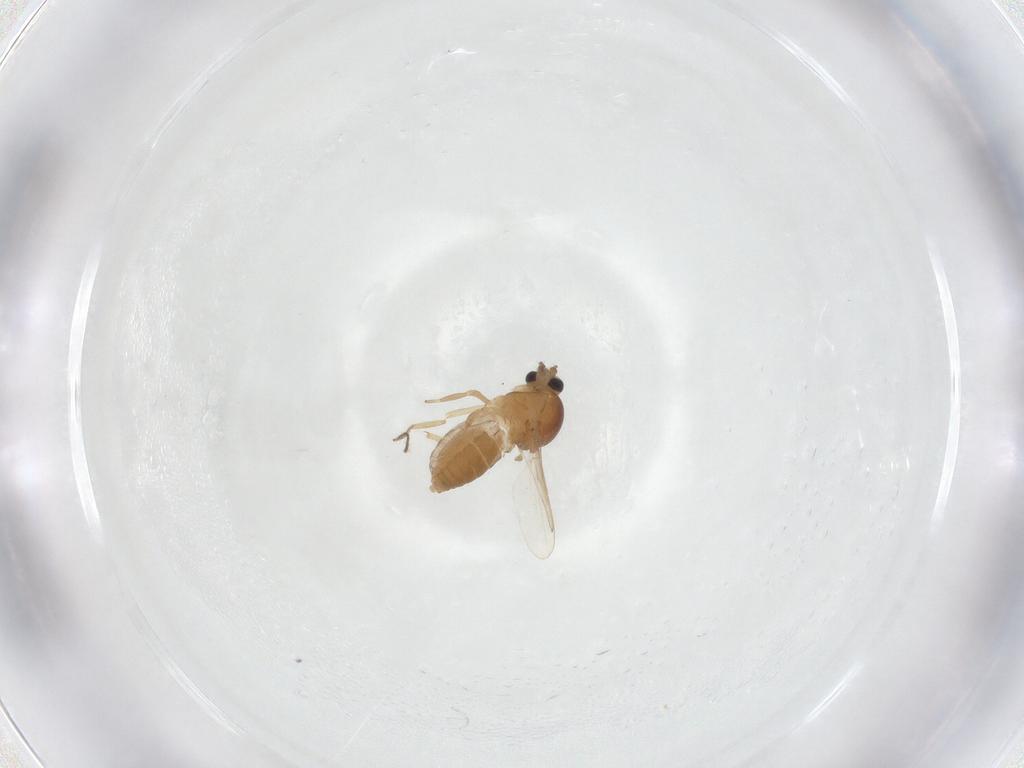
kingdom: Animalia
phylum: Arthropoda
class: Insecta
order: Diptera
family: Ceratopogonidae
